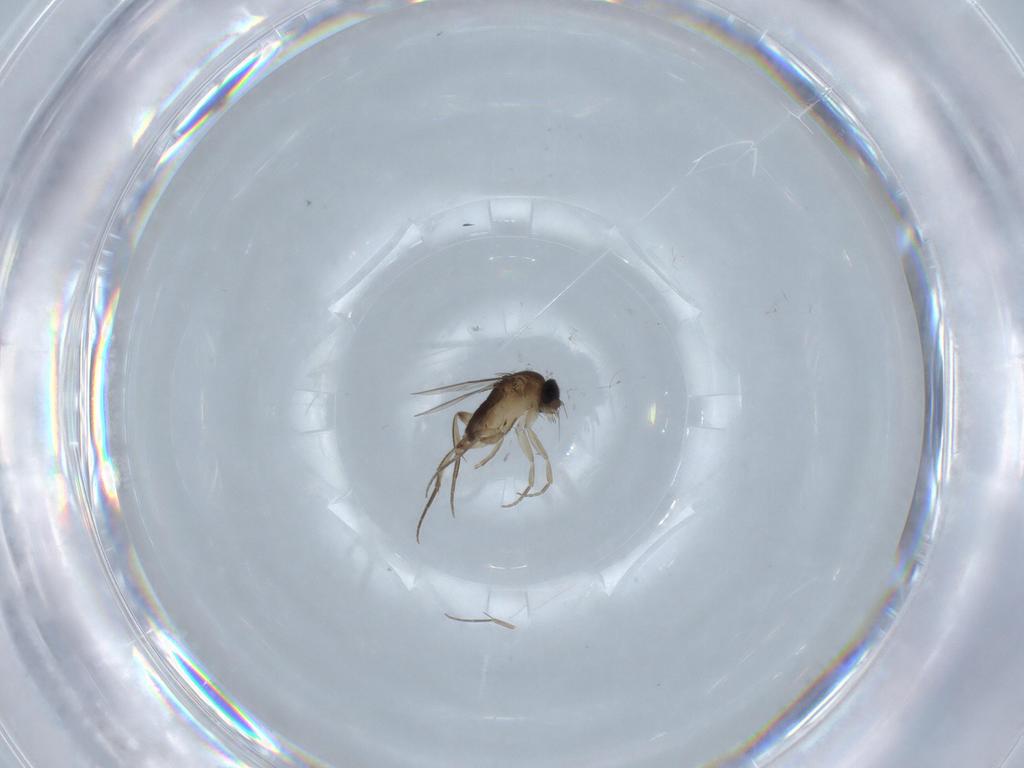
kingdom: Animalia
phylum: Arthropoda
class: Insecta
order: Diptera
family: Phoridae
